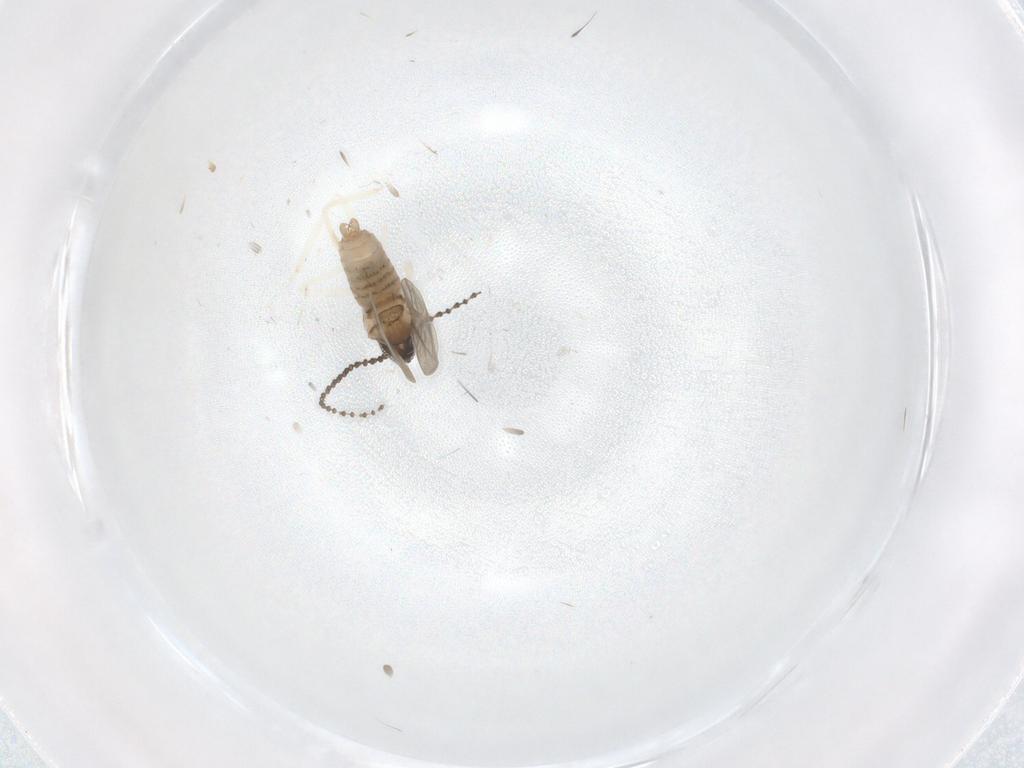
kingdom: Animalia
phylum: Arthropoda
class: Insecta
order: Diptera
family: Cecidomyiidae
